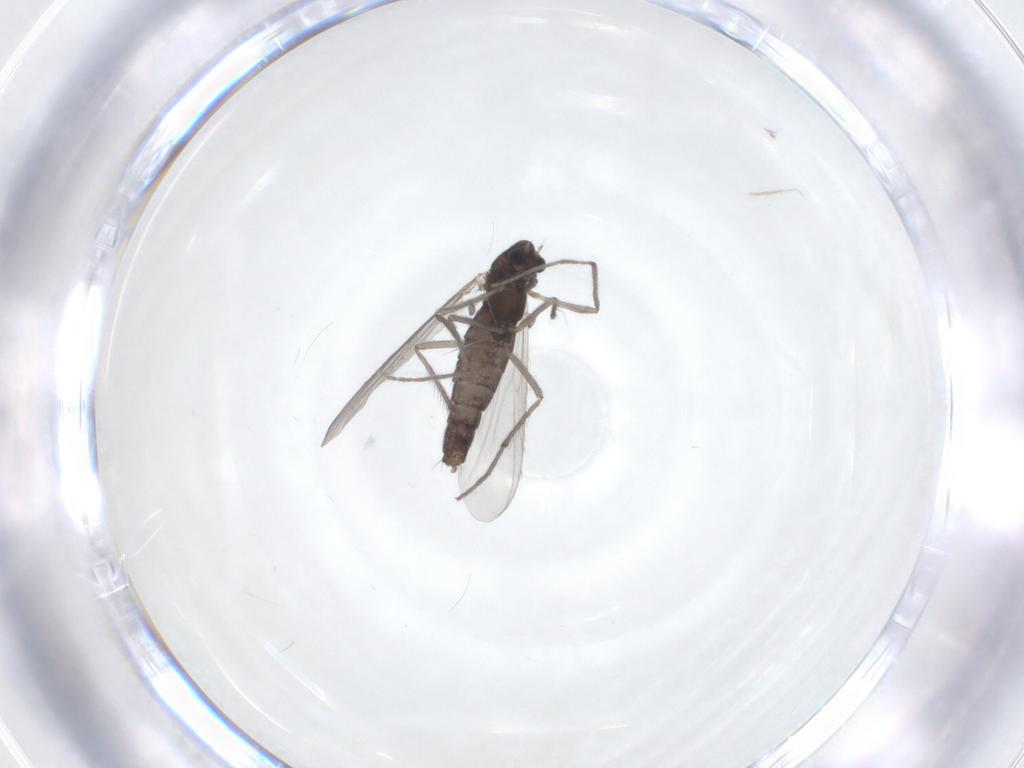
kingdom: Animalia
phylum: Arthropoda
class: Insecta
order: Diptera
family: Chironomidae
